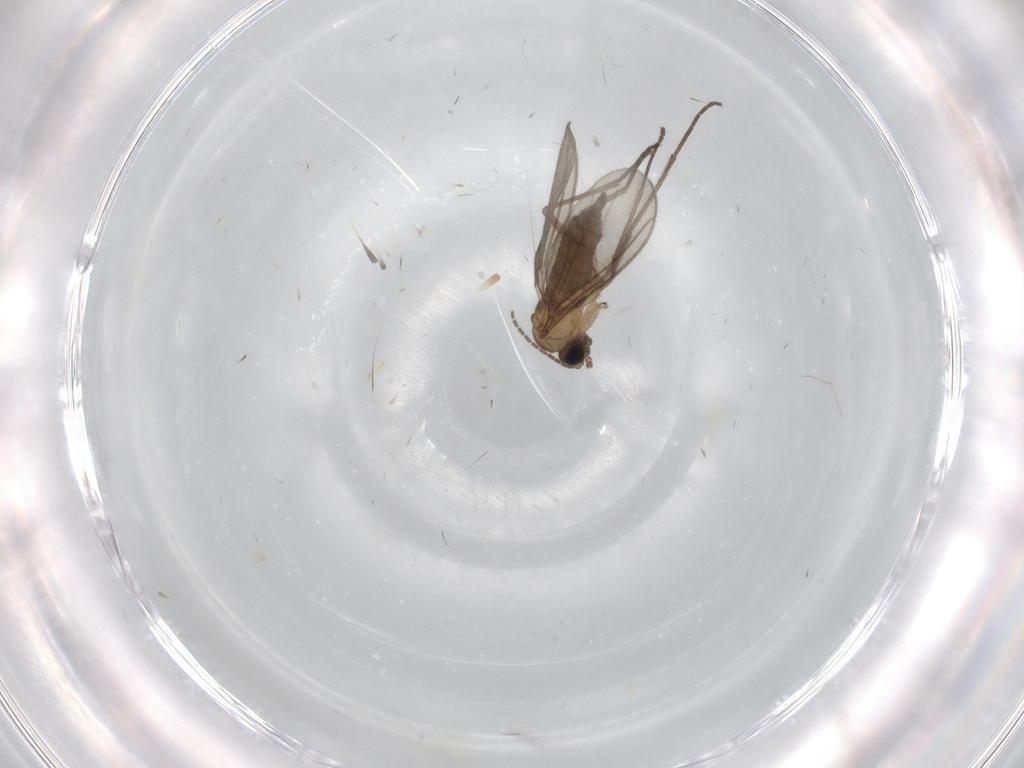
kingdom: Animalia
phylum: Arthropoda
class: Insecta
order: Diptera
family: Sciaridae
